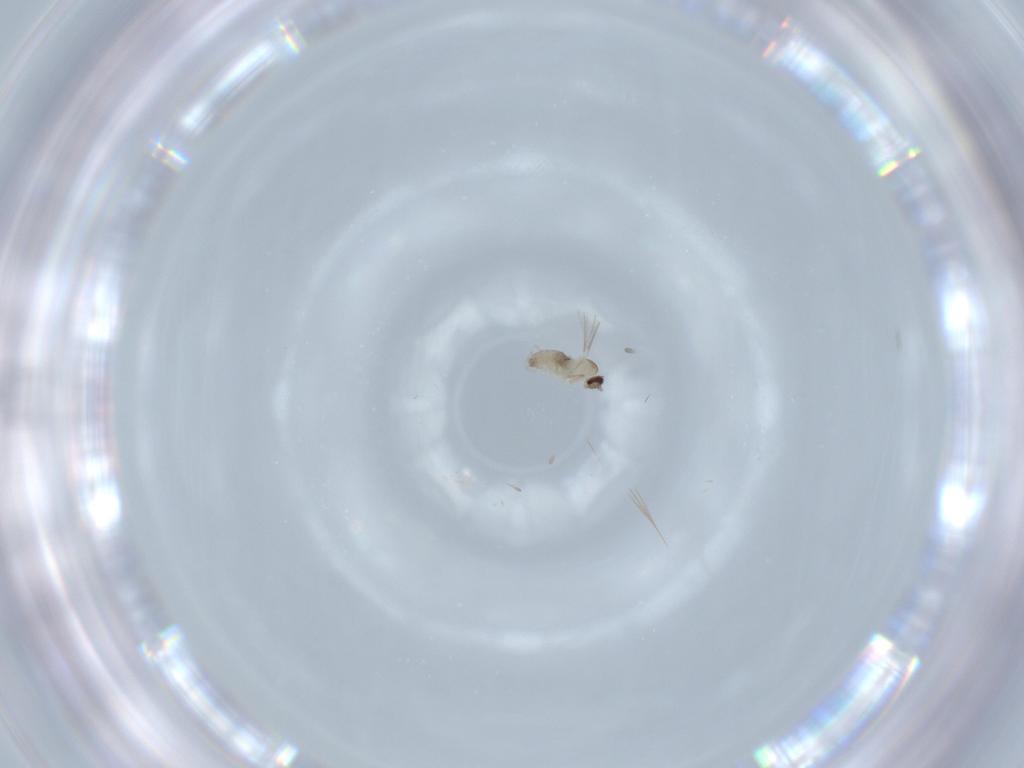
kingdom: Animalia
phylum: Arthropoda
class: Insecta
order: Diptera
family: Cecidomyiidae
